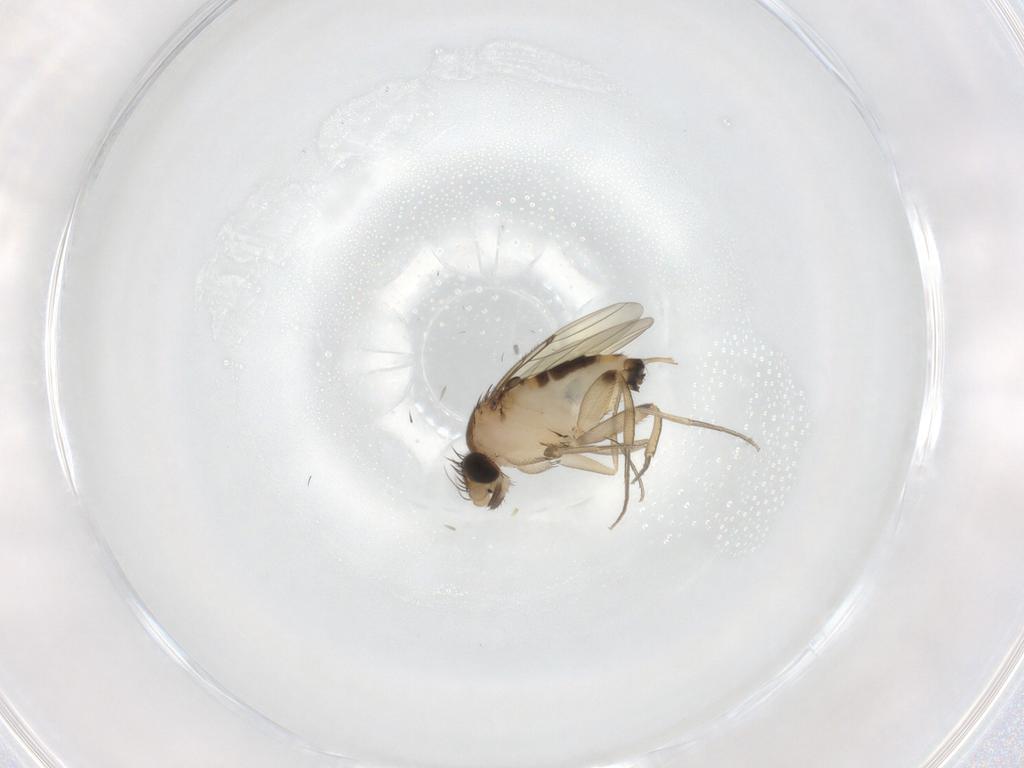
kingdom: Animalia
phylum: Arthropoda
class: Insecta
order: Diptera
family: Phoridae
